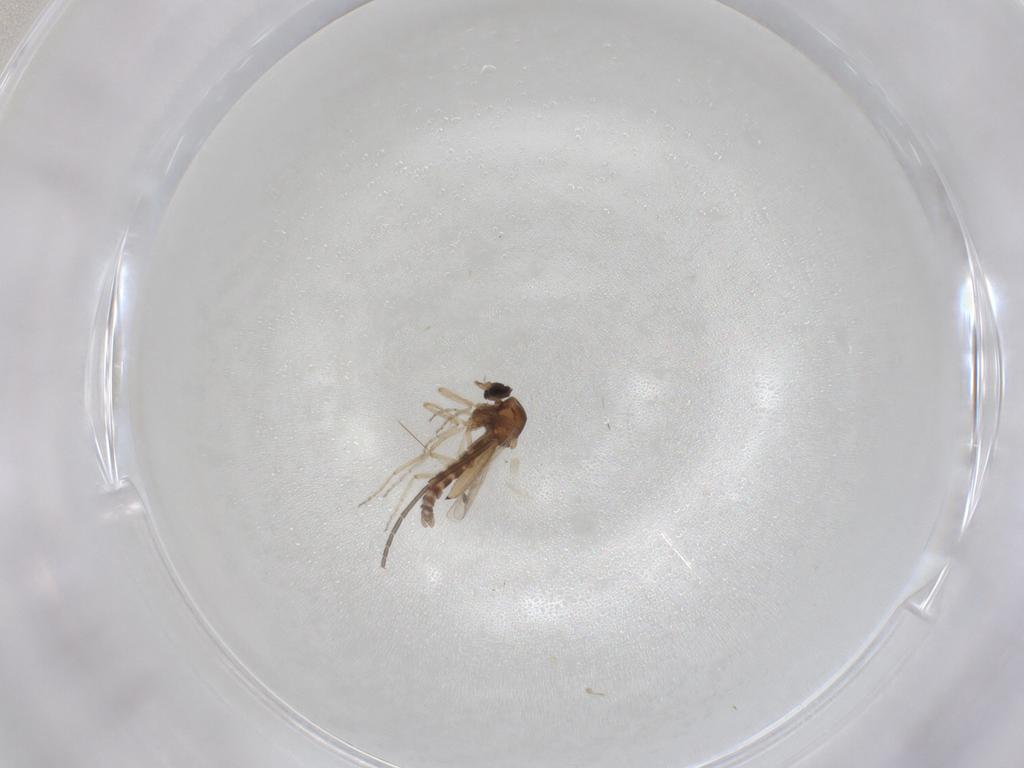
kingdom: Animalia
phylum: Arthropoda
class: Insecta
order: Diptera
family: Ceratopogonidae
